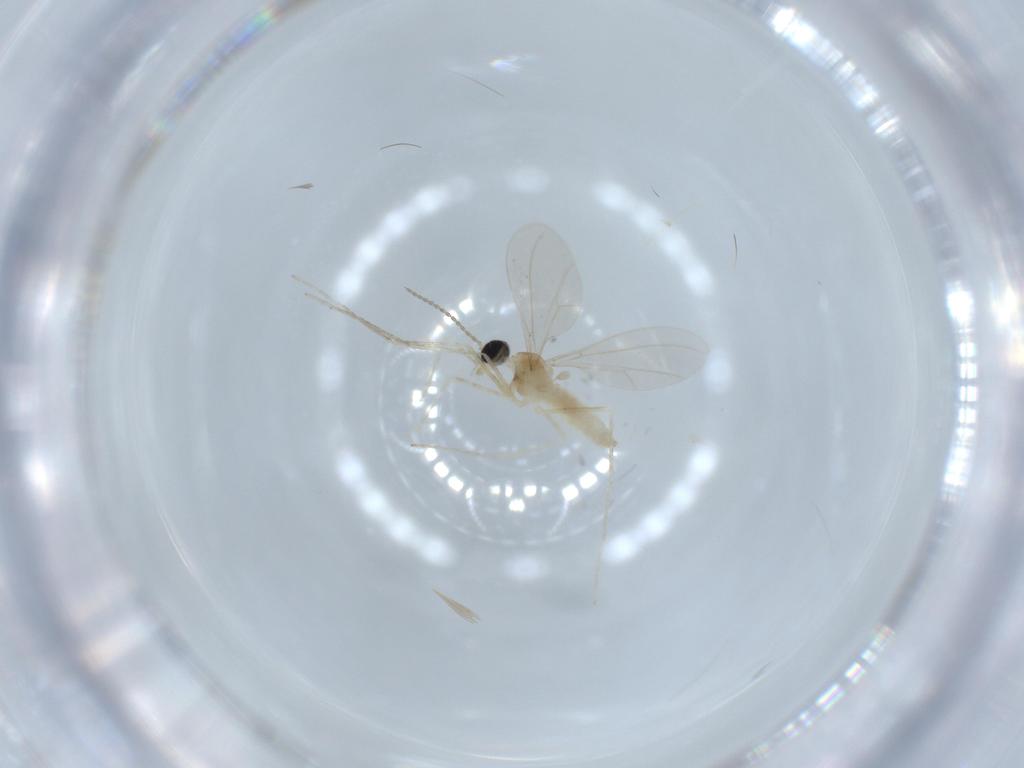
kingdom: Animalia
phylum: Arthropoda
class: Insecta
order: Diptera
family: Cecidomyiidae
